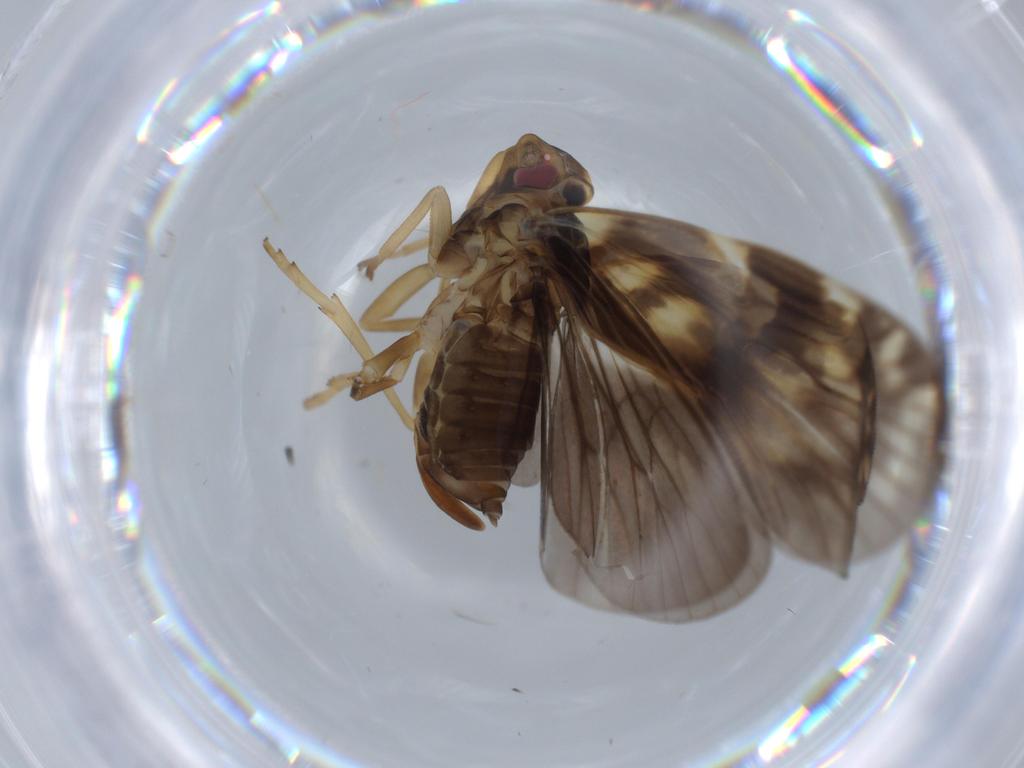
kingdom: Animalia
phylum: Arthropoda
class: Insecta
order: Hemiptera
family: Cixiidae
